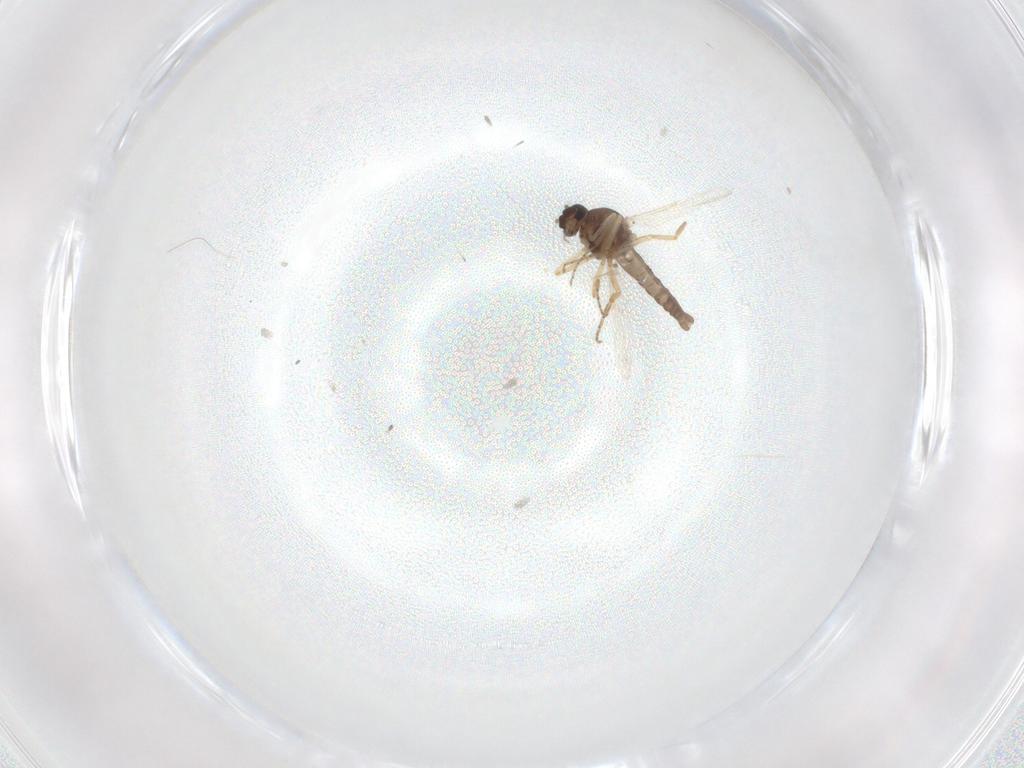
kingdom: Animalia
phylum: Arthropoda
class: Insecta
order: Diptera
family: Ceratopogonidae
